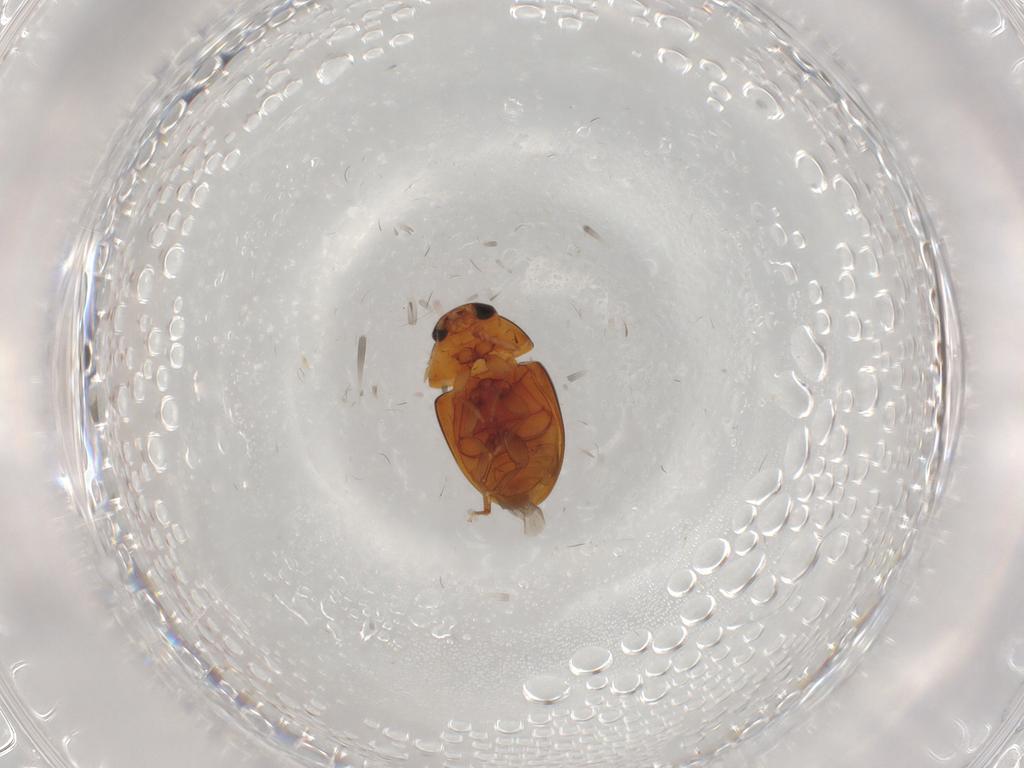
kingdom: Animalia
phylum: Arthropoda
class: Insecta
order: Coleoptera
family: Phalacridae
